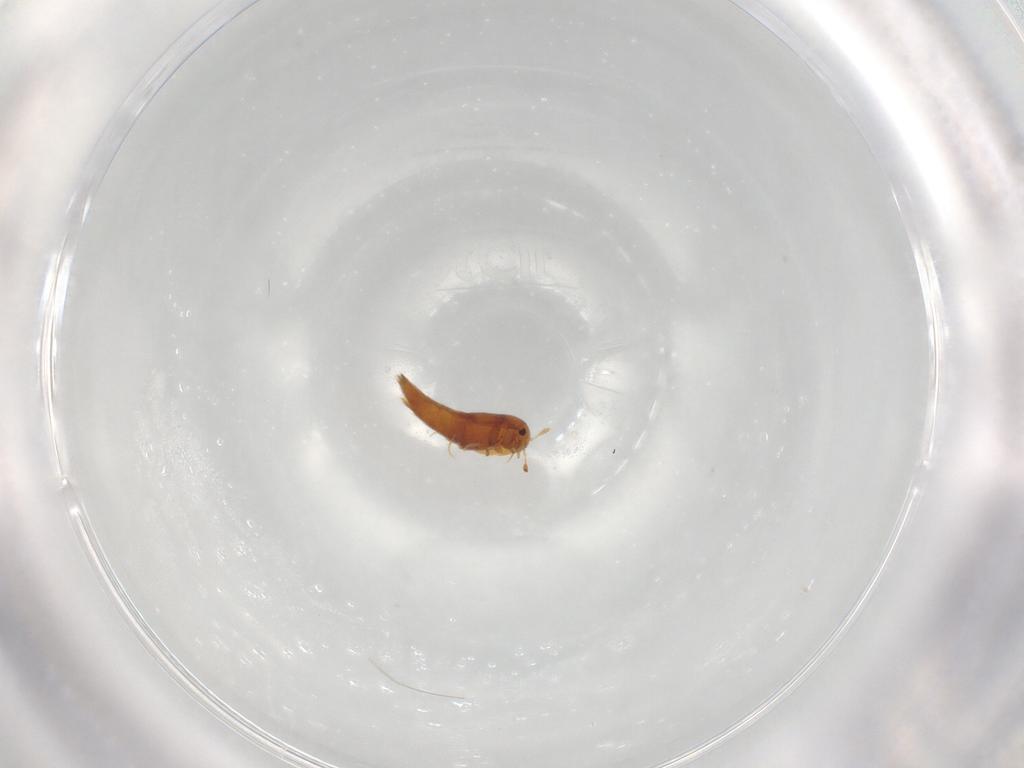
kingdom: Animalia
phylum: Arthropoda
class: Insecta
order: Coleoptera
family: Staphylinidae
